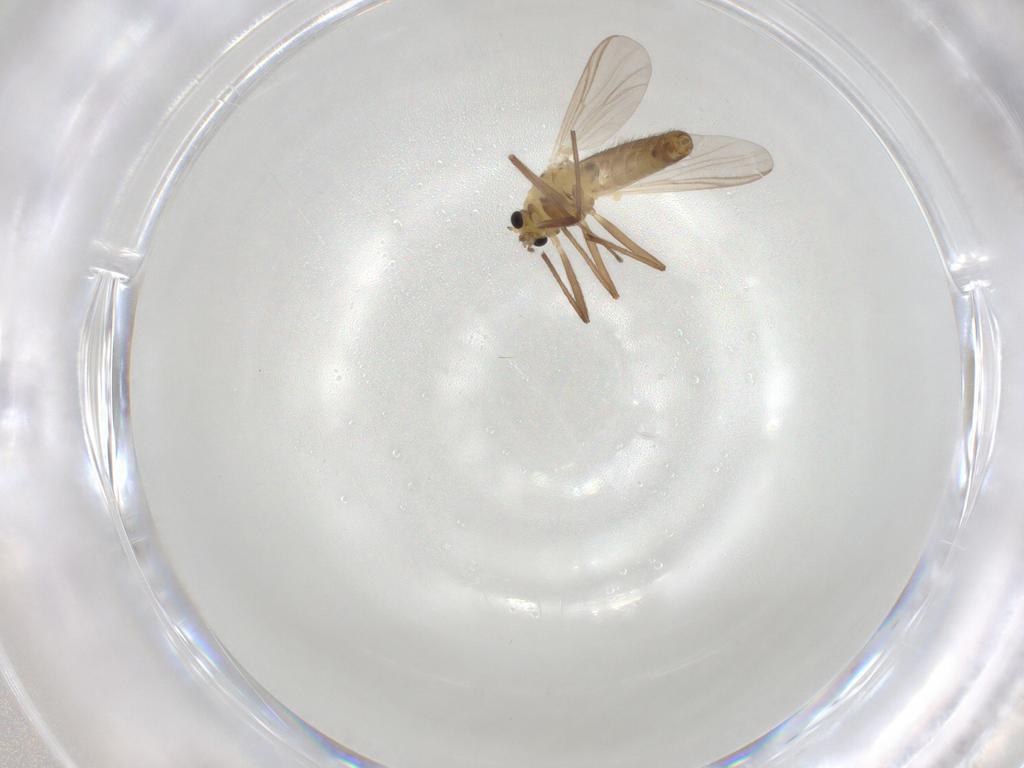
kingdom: Animalia
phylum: Arthropoda
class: Insecta
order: Diptera
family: Chironomidae
